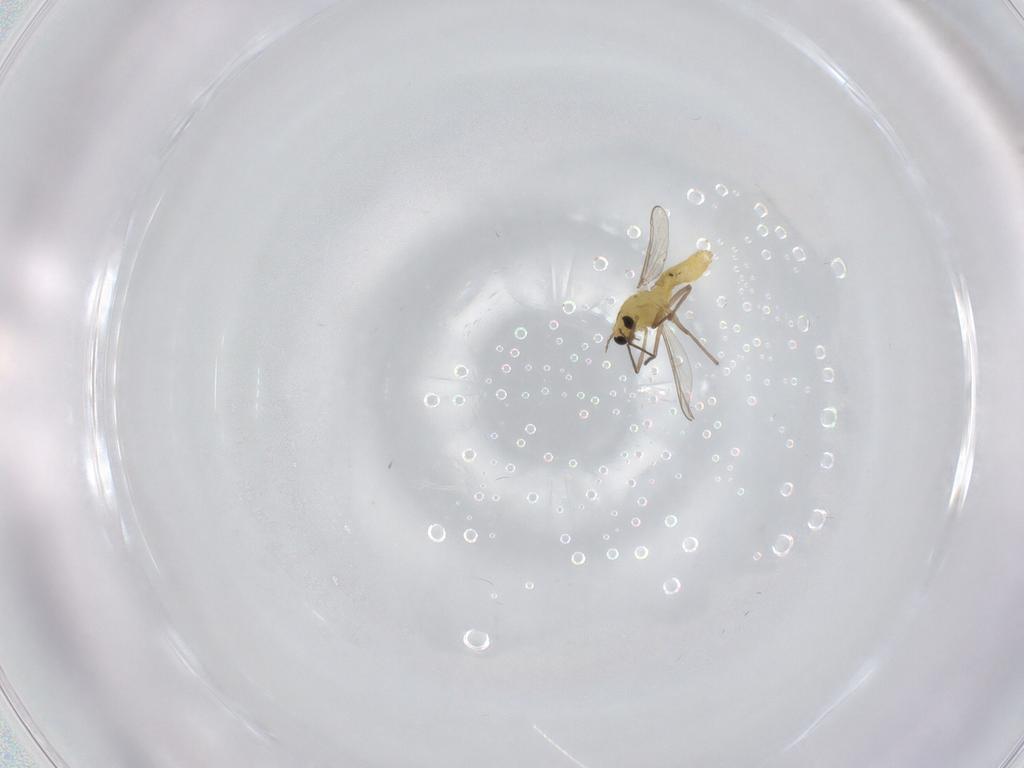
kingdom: Animalia
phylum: Arthropoda
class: Insecta
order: Diptera
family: Chironomidae
